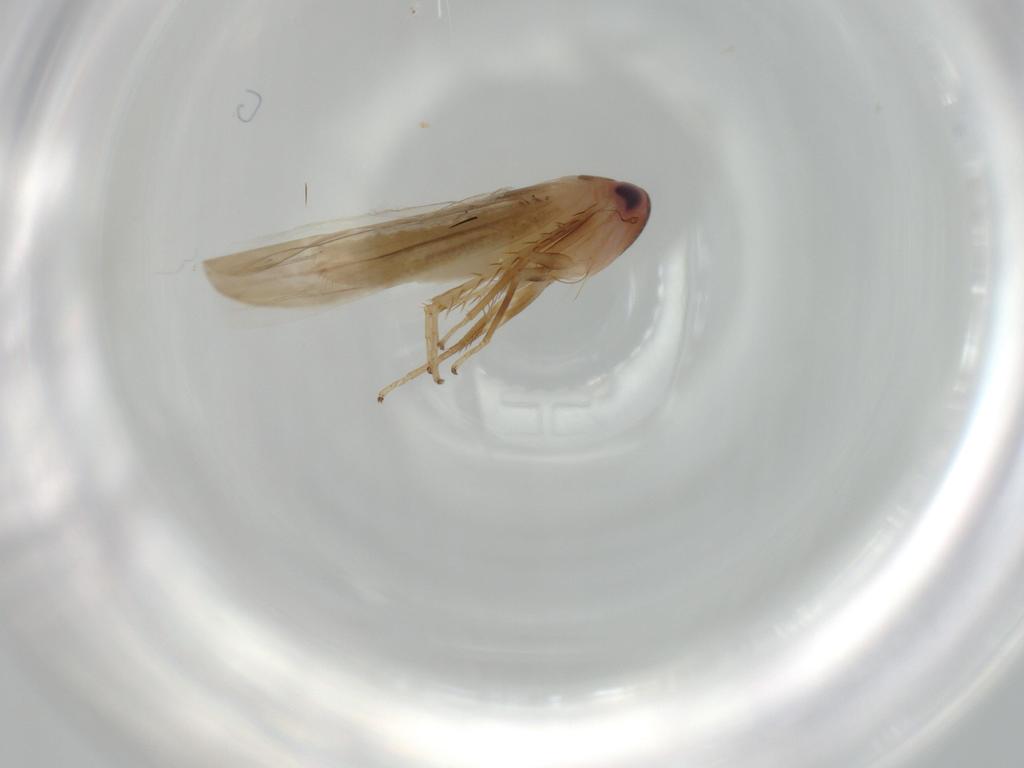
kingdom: Animalia
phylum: Arthropoda
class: Insecta
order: Hemiptera
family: Cicadellidae
